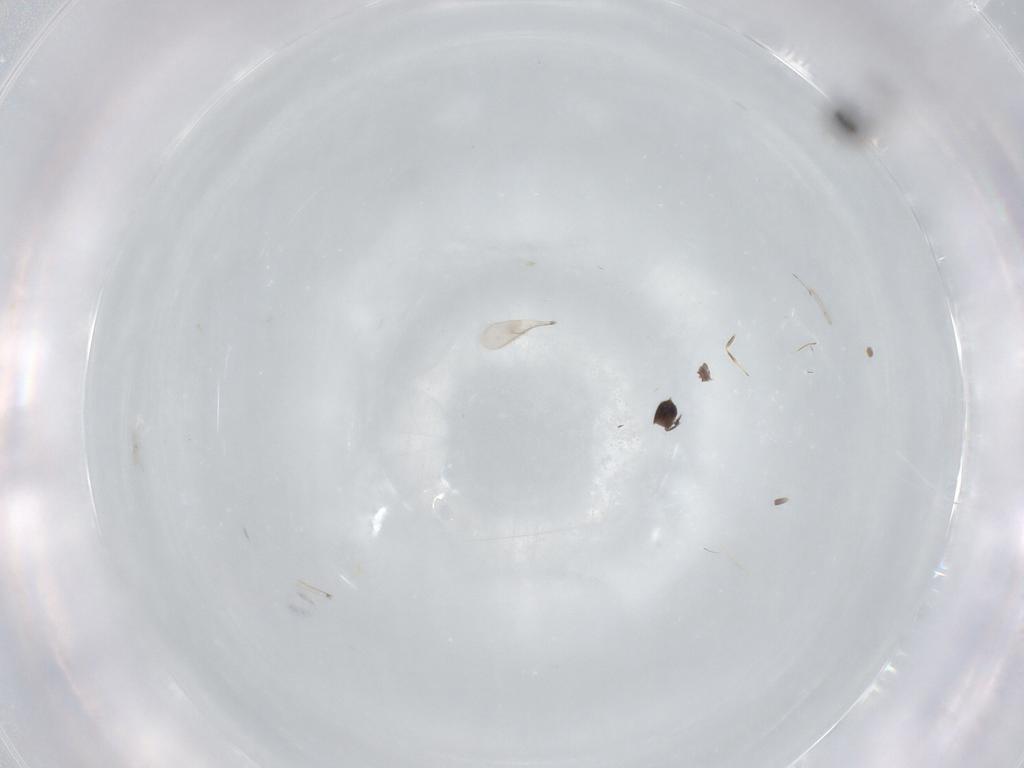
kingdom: Animalia
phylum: Arthropoda
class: Insecta
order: Hymenoptera
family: Scelionidae
